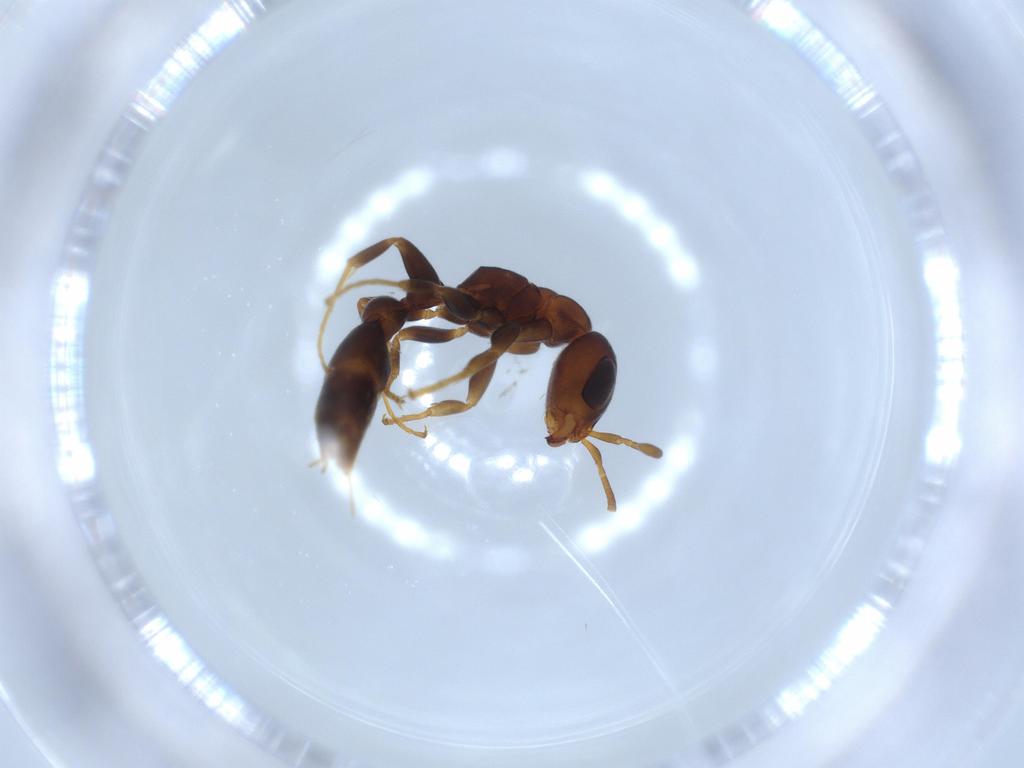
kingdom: Animalia
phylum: Arthropoda
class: Insecta
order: Hymenoptera
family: Formicidae
